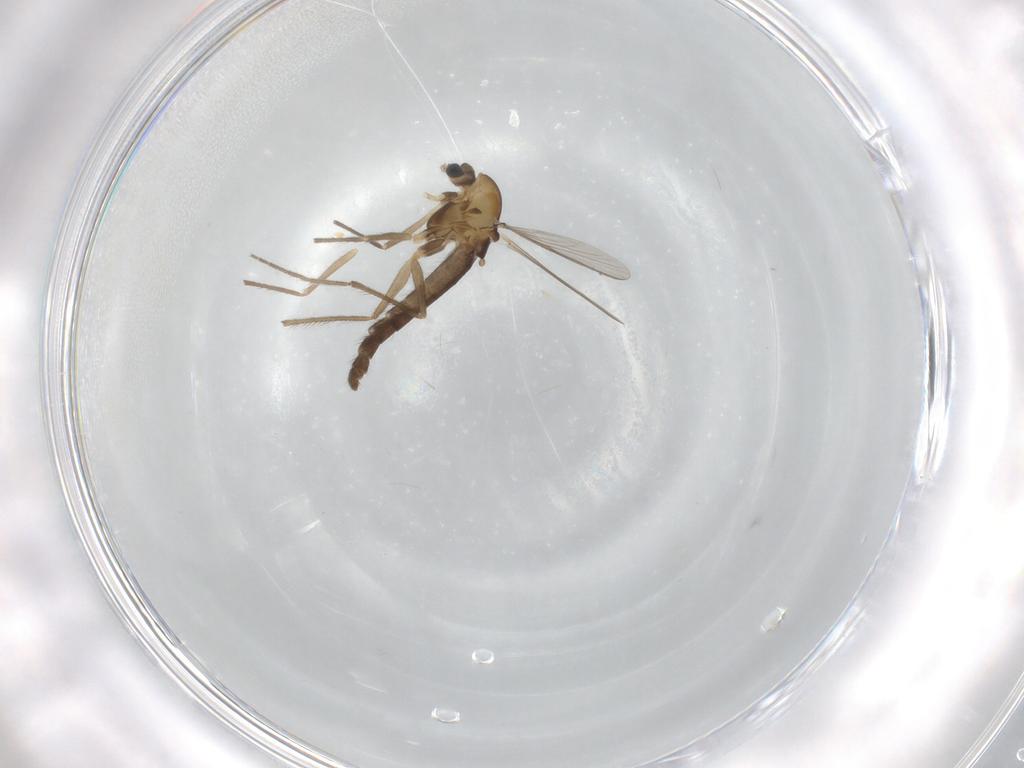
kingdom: Animalia
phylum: Arthropoda
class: Insecta
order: Diptera
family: Chironomidae
